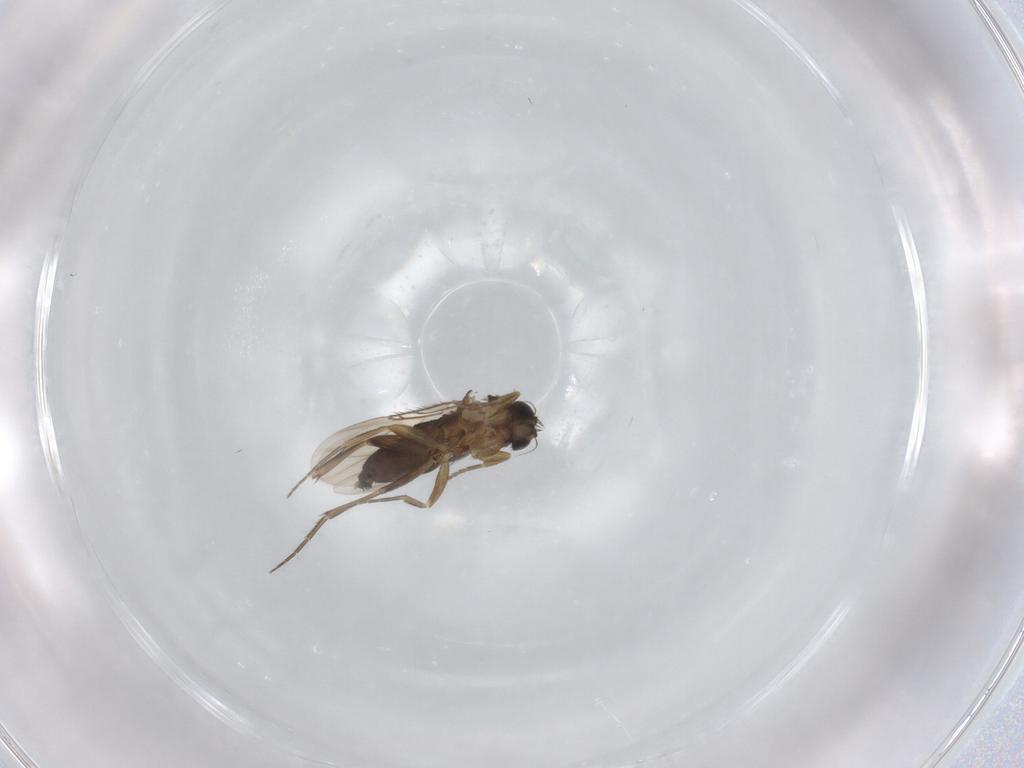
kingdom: Animalia
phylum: Arthropoda
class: Insecta
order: Diptera
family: Phoridae
